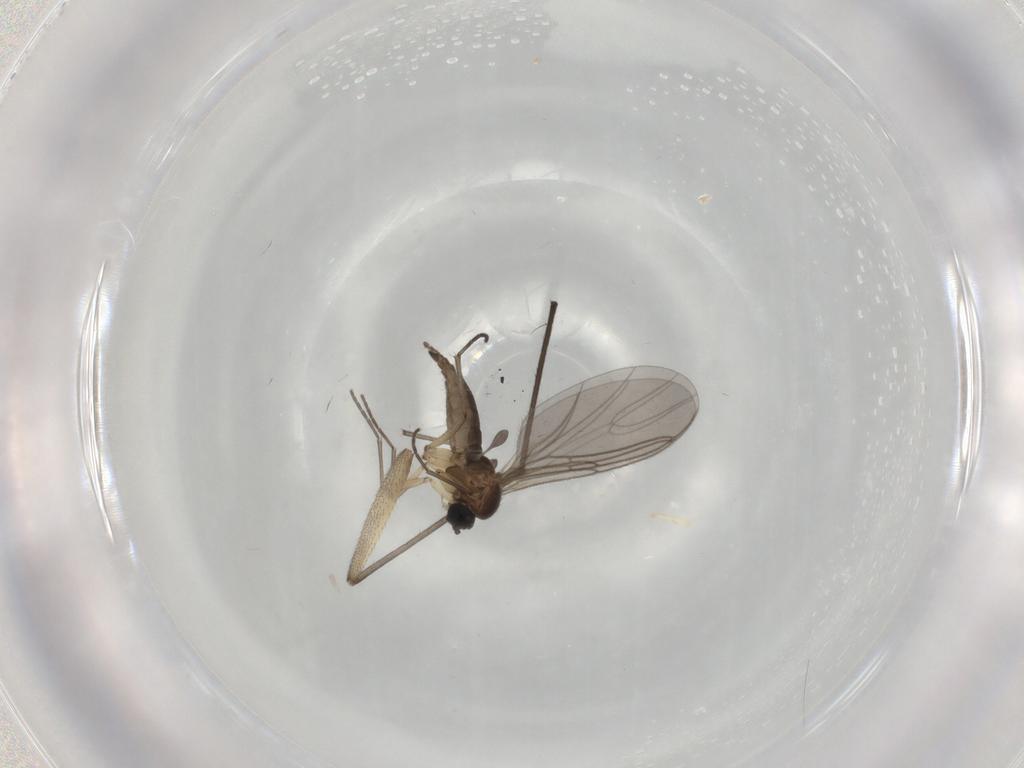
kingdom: Animalia
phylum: Arthropoda
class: Insecta
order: Diptera
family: Sciaridae
